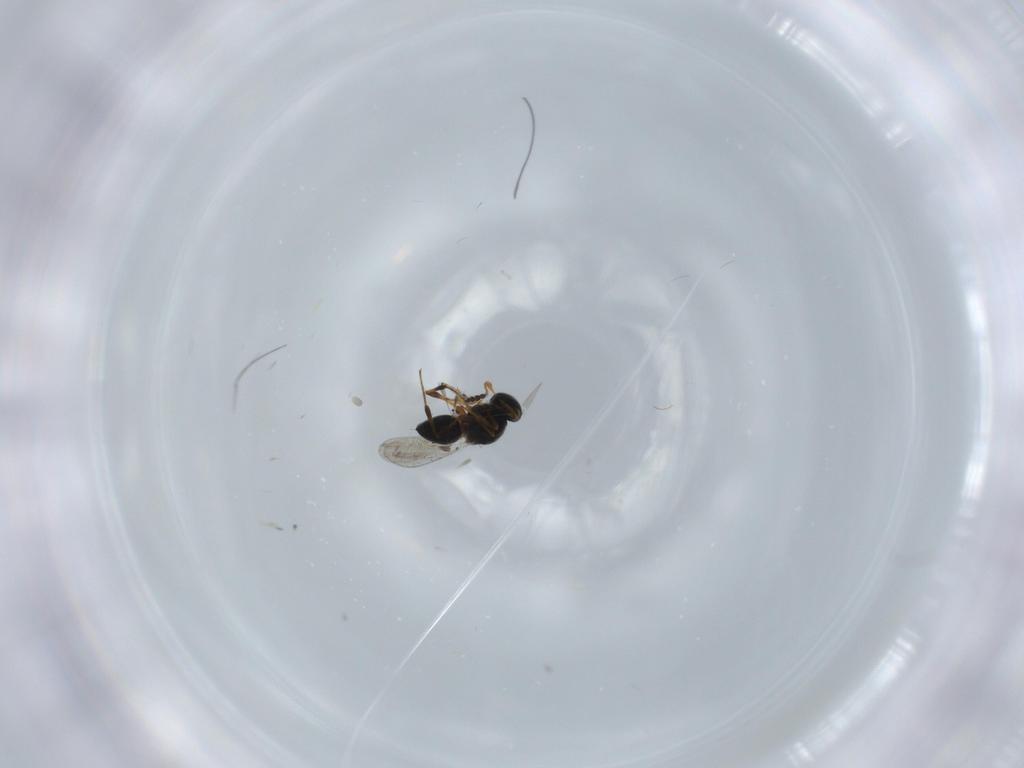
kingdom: Animalia
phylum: Arthropoda
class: Insecta
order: Hymenoptera
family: Platygastridae
